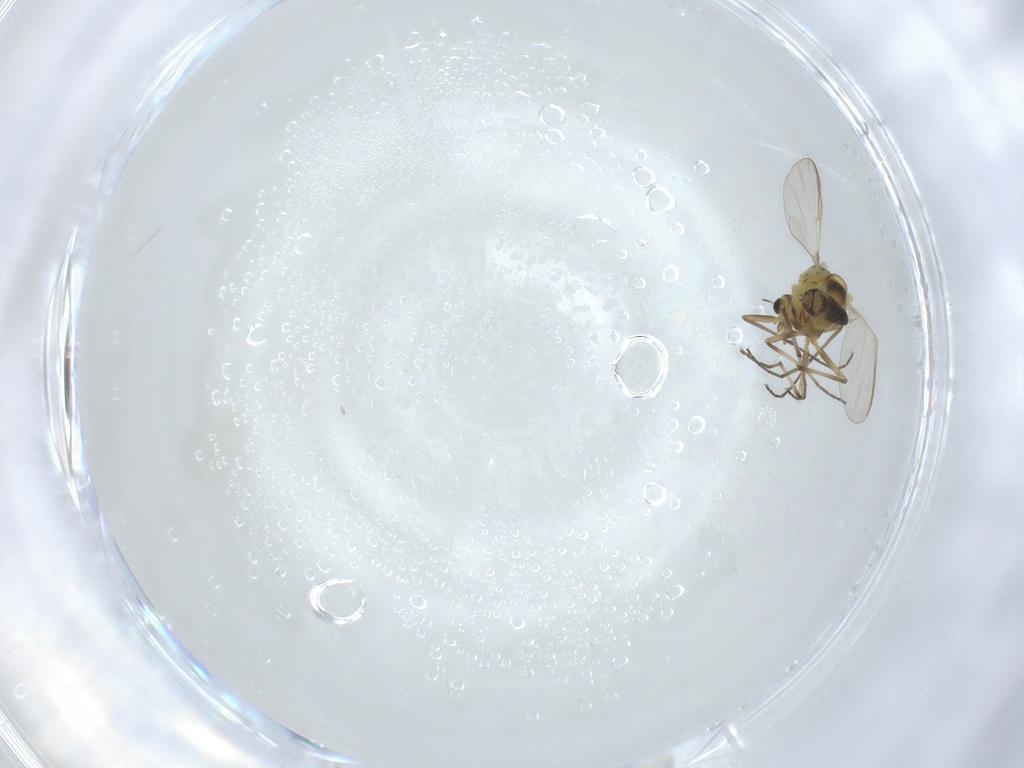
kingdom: Animalia
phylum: Arthropoda
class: Insecta
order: Diptera
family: Chironomidae
